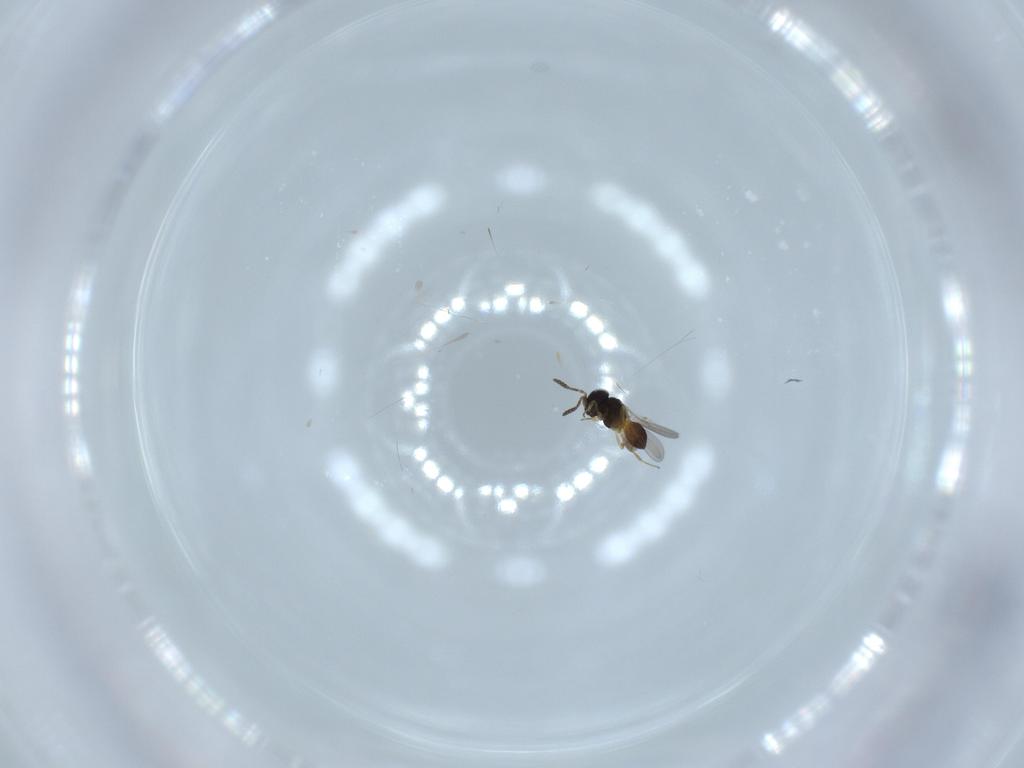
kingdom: Animalia
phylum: Arthropoda
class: Insecta
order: Hymenoptera
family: Scelionidae
